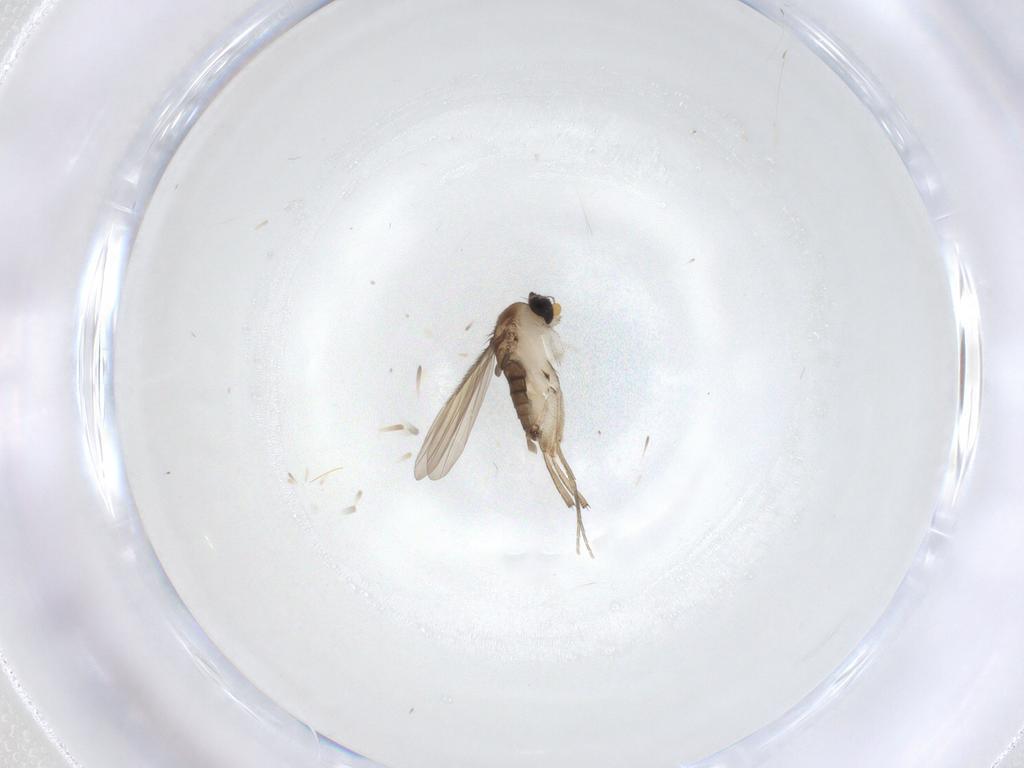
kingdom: Animalia
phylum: Arthropoda
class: Insecta
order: Diptera
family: Phoridae
